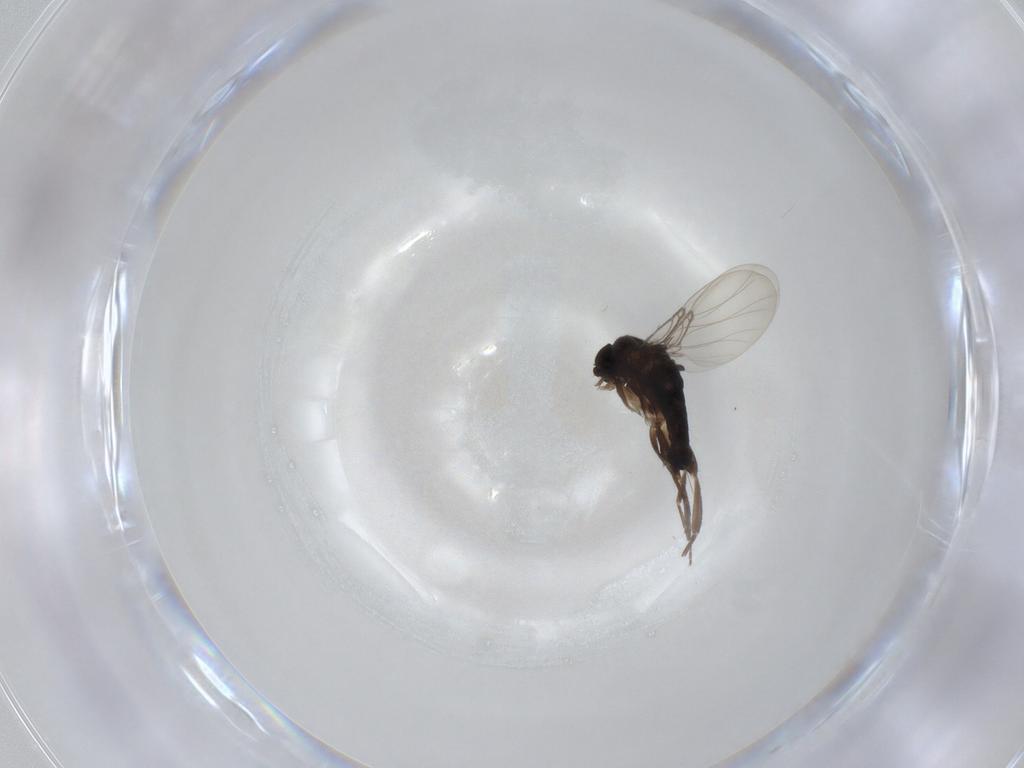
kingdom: Animalia
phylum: Arthropoda
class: Insecta
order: Diptera
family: Phoridae
